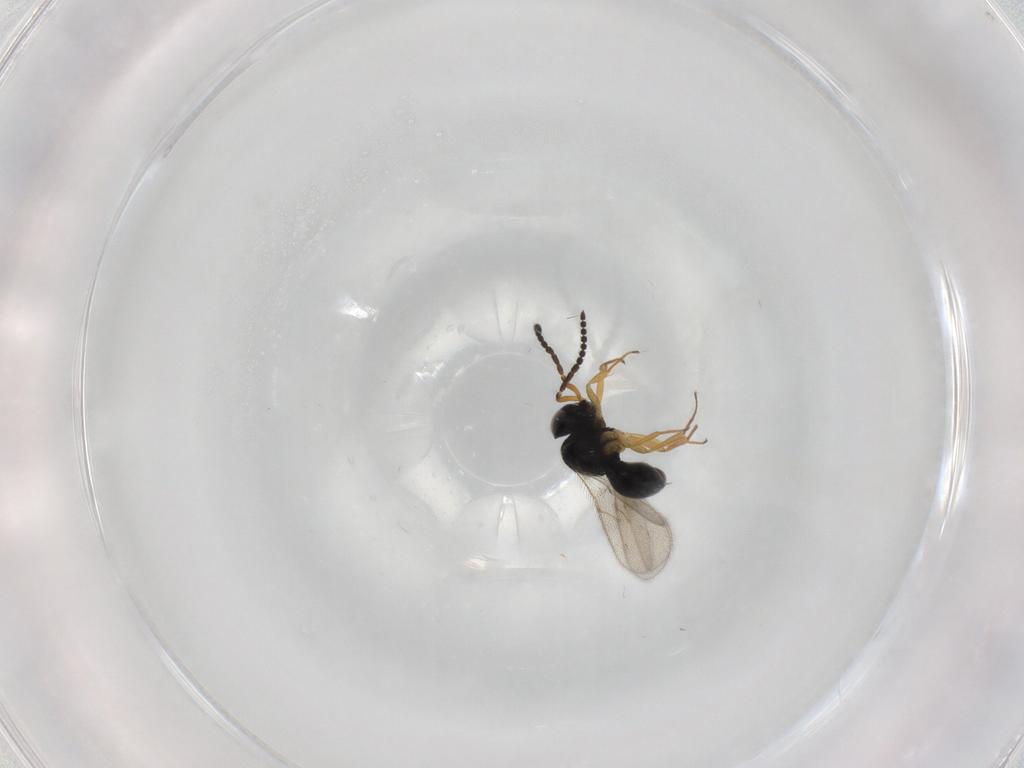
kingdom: Animalia
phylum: Arthropoda
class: Insecta
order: Hymenoptera
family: Scelionidae
